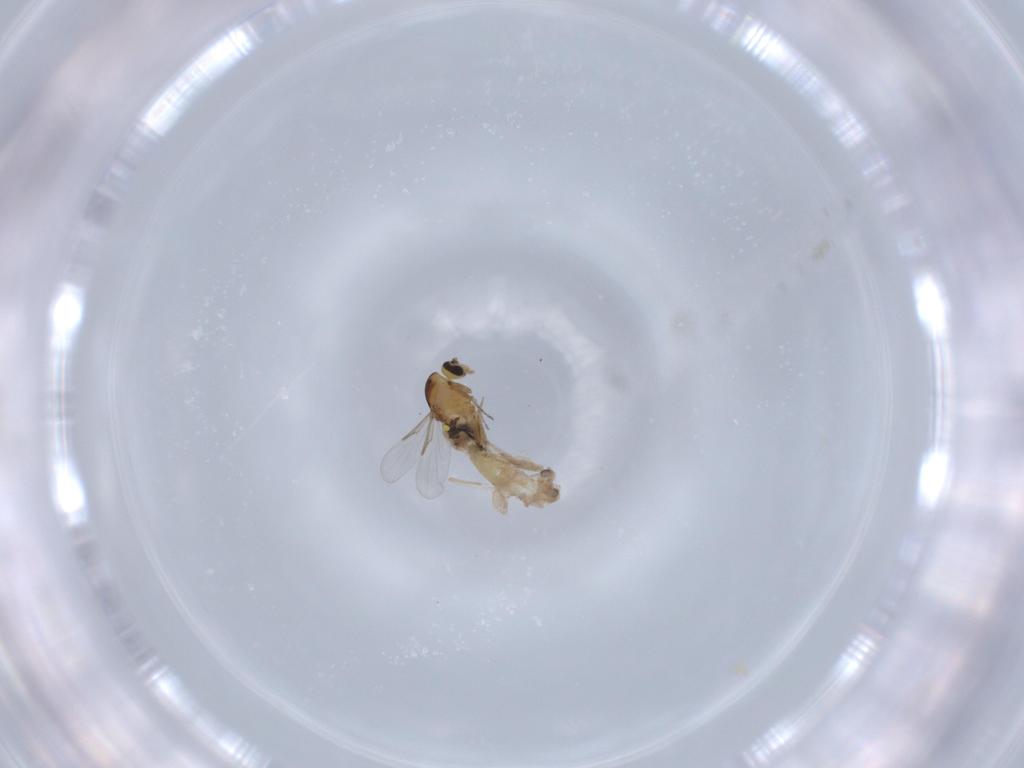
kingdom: Animalia
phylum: Arthropoda
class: Insecta
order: Diptera
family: Ceratopogonidae
